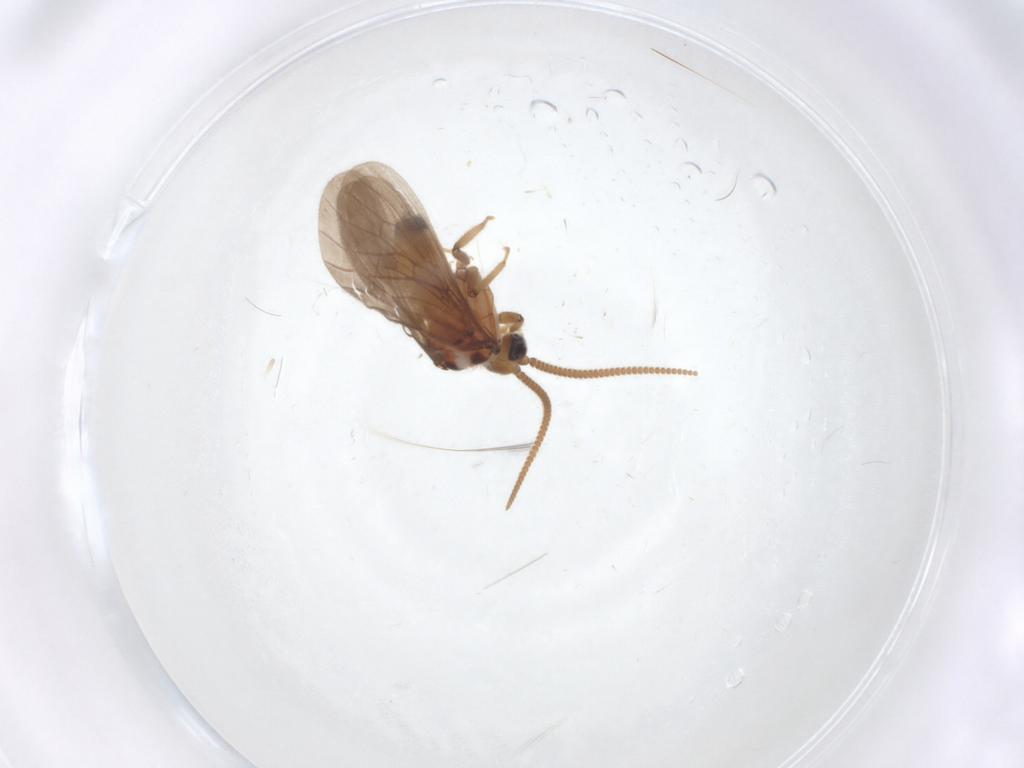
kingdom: Animalia
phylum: Arthropoda
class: Insecta
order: Neuroptera
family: Coniopterygidae
